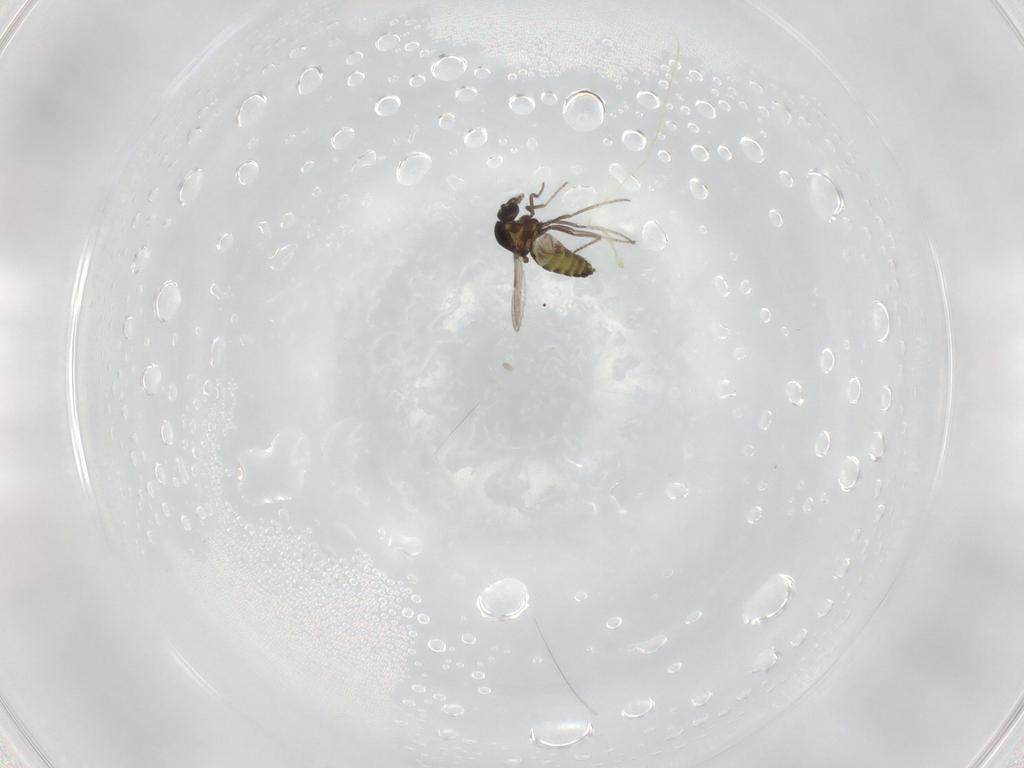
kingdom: Animalia
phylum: Arthropoda
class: Insecta
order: Diptera
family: Ceratopogonidae
